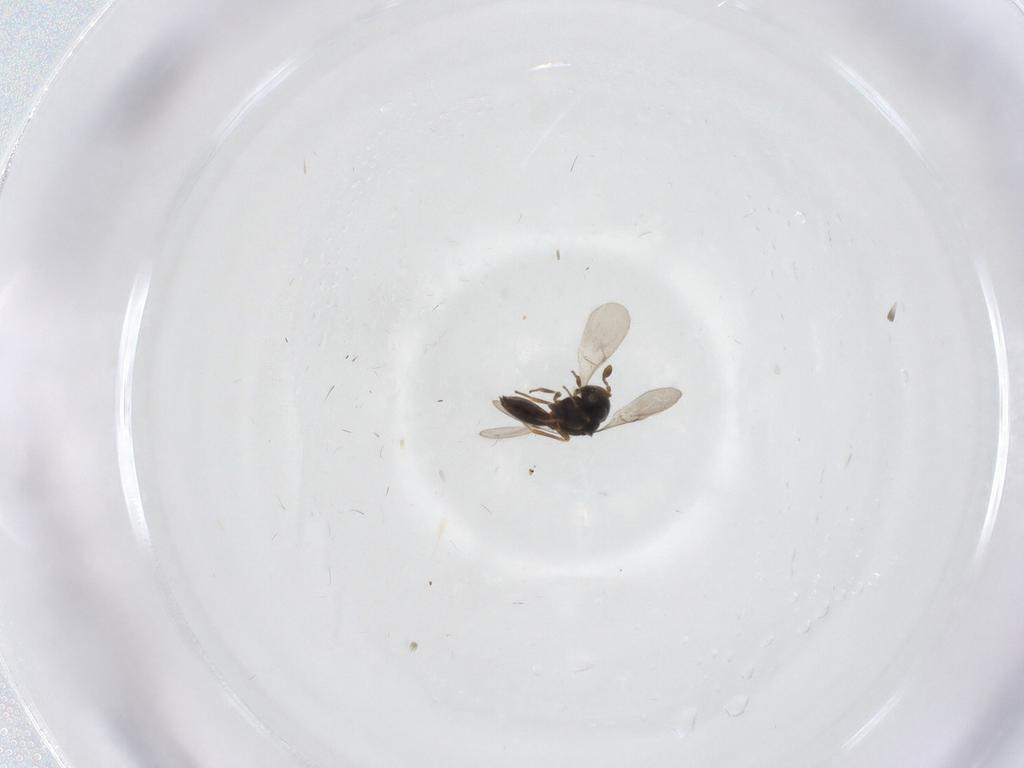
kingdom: Animalia
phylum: Arthropoda
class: Insecta
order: Hymenoptera
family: Scelionidae
